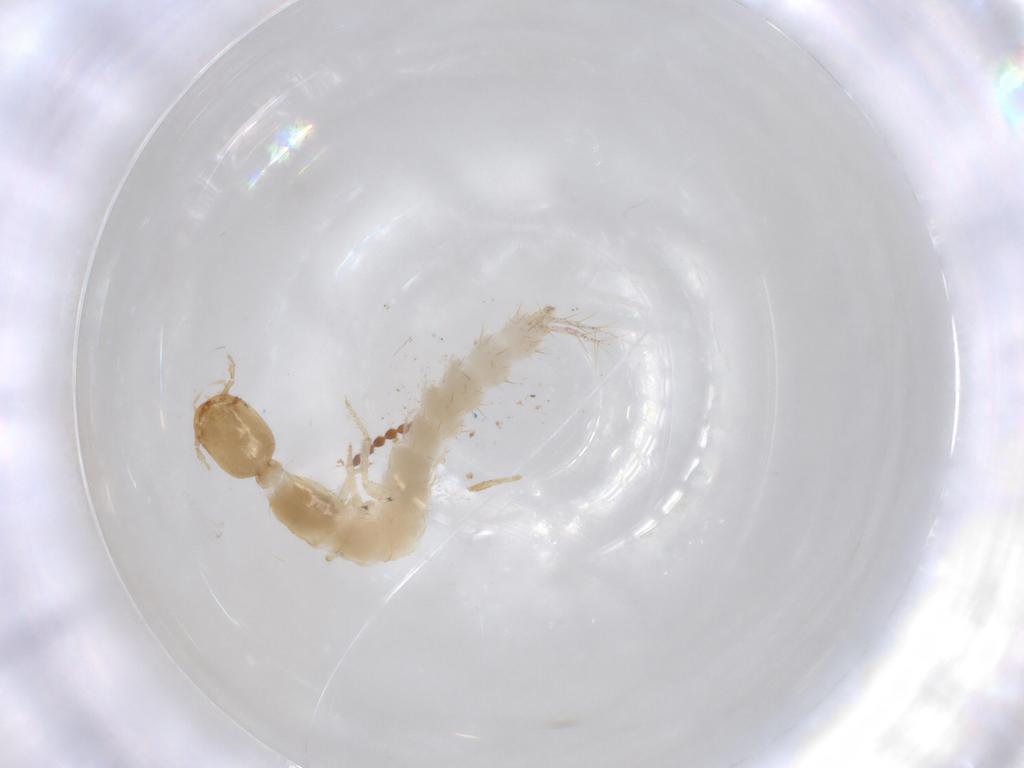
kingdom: Animalia
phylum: Arthropoda
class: Insecta
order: Coleoptera
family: Staphylinidae
